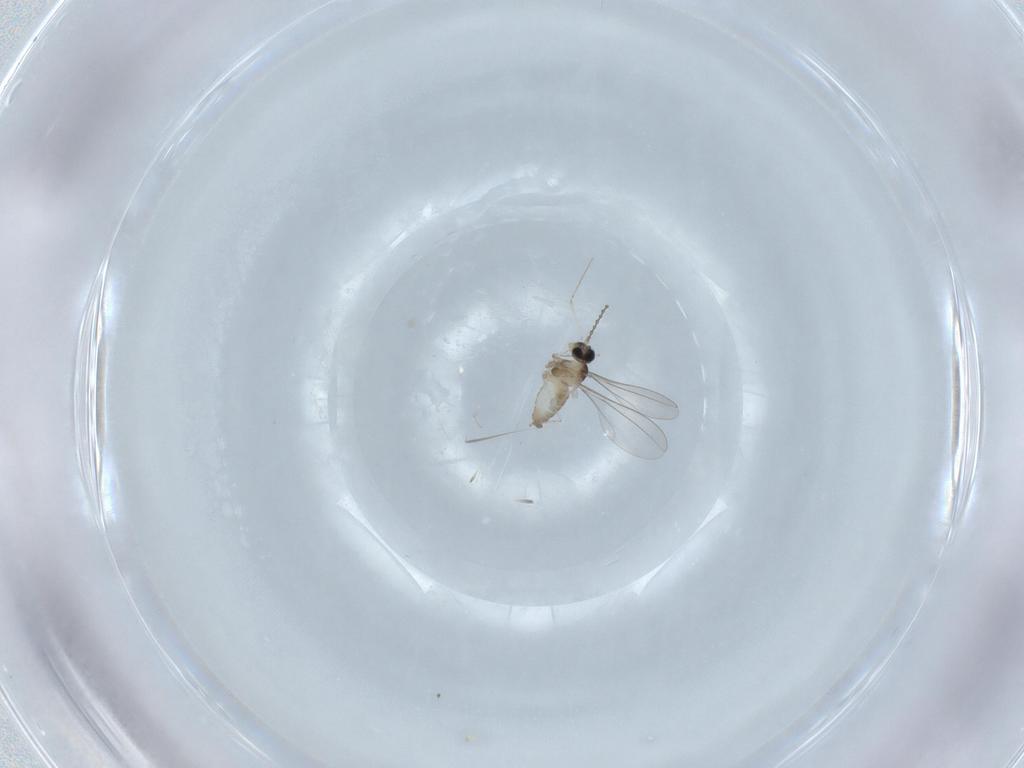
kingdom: Animalia
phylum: Arthropoda
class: Insecta
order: Diptera
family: Cecidomyiidae
